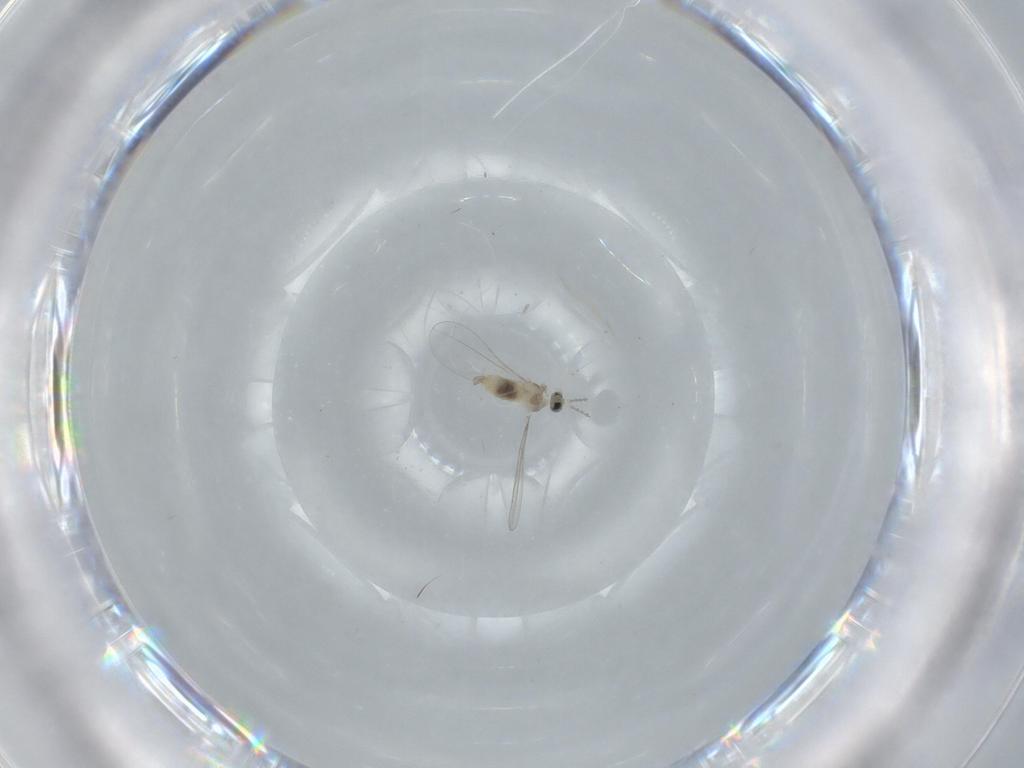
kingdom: Animalia
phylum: Arthropoda
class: Insecta
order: Diptera
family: Cecidomyiidae
